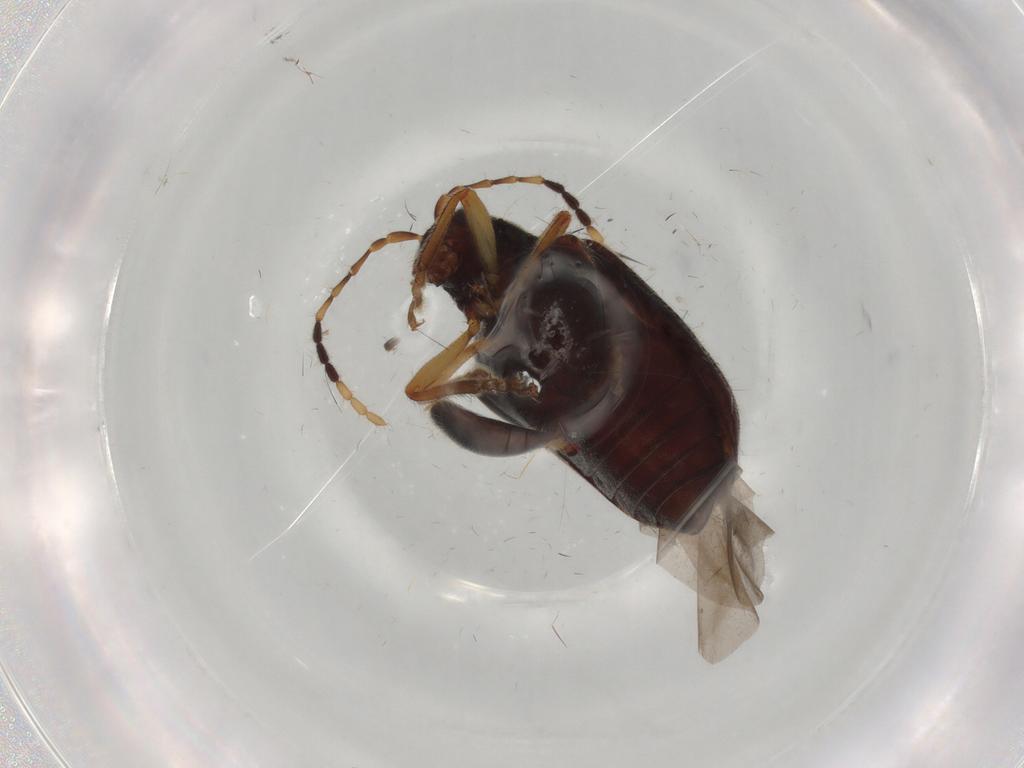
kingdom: Animalia
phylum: Arthropoda
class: Insecta
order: Coleoptera
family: Chrysomelidae
